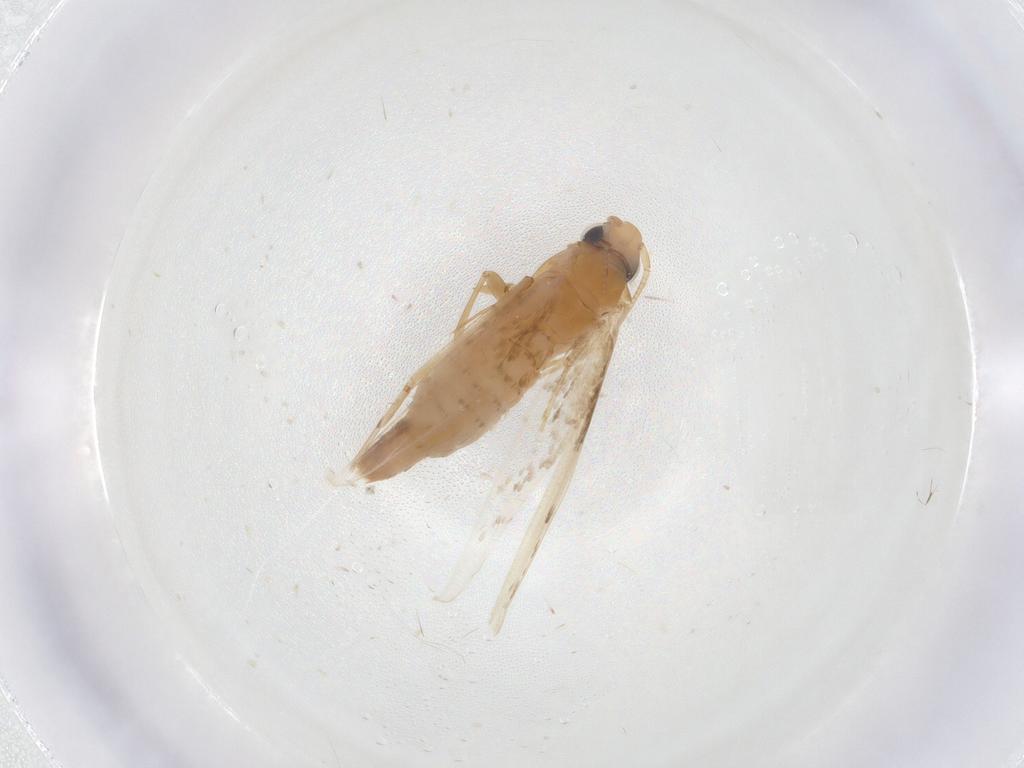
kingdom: Animalia
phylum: Arthropoda
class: Insecta
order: Lepidoptera
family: Tineidae
